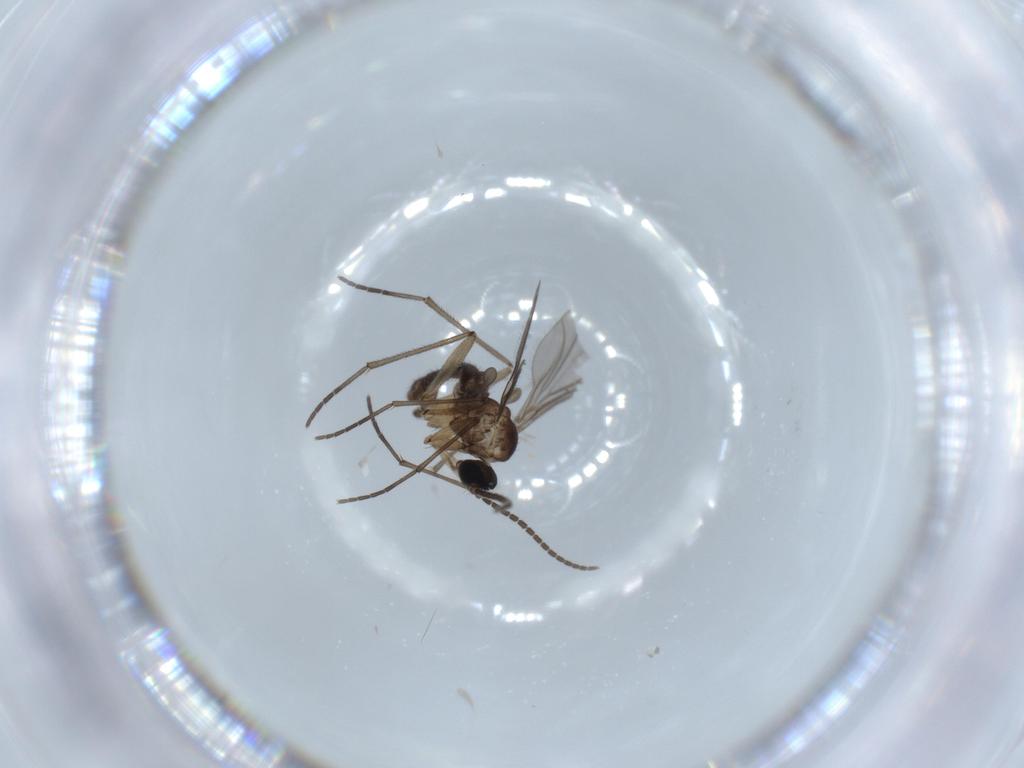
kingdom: Animalia
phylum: Arthropoda
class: Insecta
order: Diptera
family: Sciaridae
